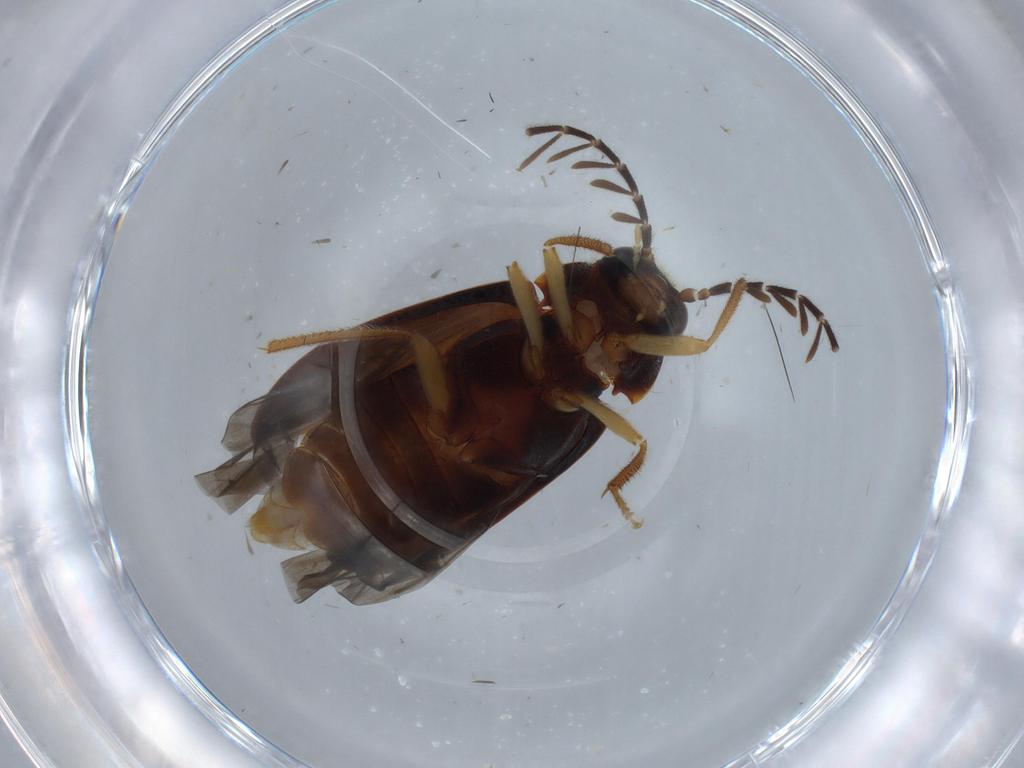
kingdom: Animalia
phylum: Arthropoda
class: Insecta
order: Coleoptera
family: Ptilodactylidae
